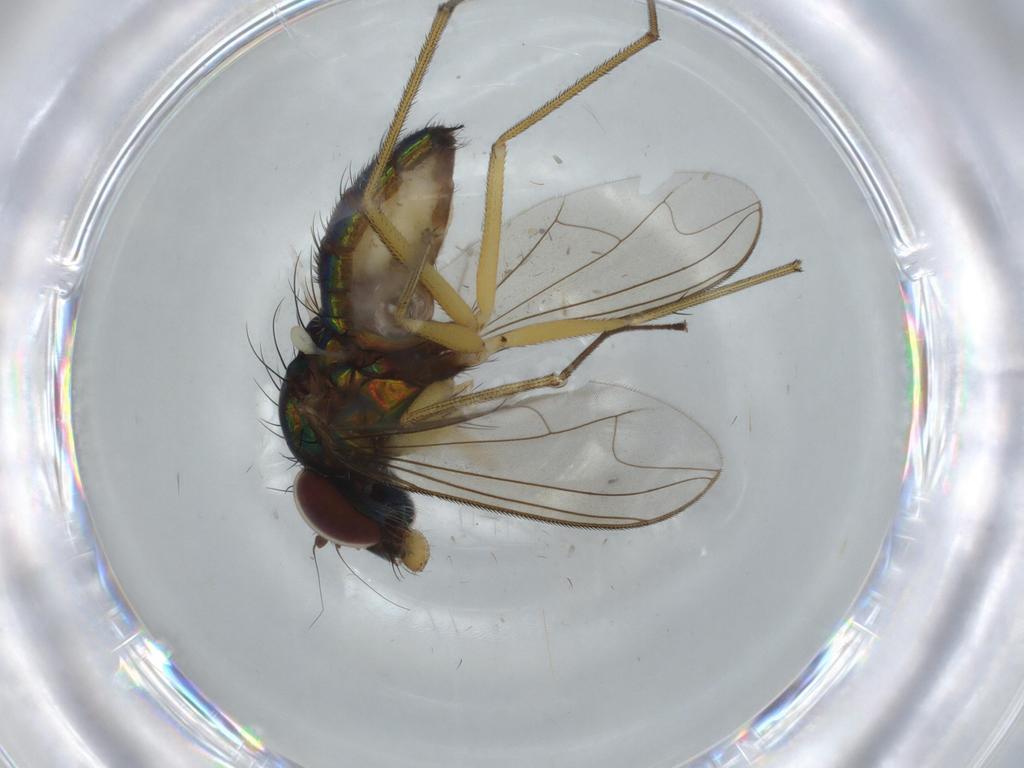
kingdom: Animalia
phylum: Arthropoda
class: Insecta
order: Diptera
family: Dolichopodidae
